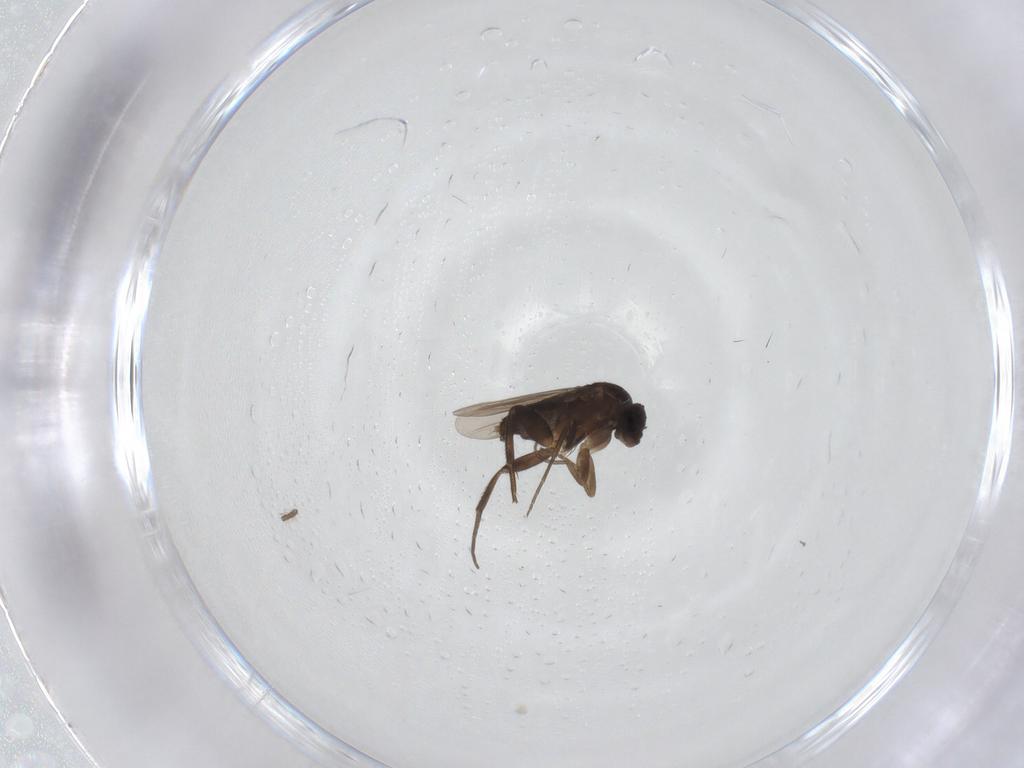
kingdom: Animalia
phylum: Arthropoda
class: Insecta
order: Diptera
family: Chironomidae
